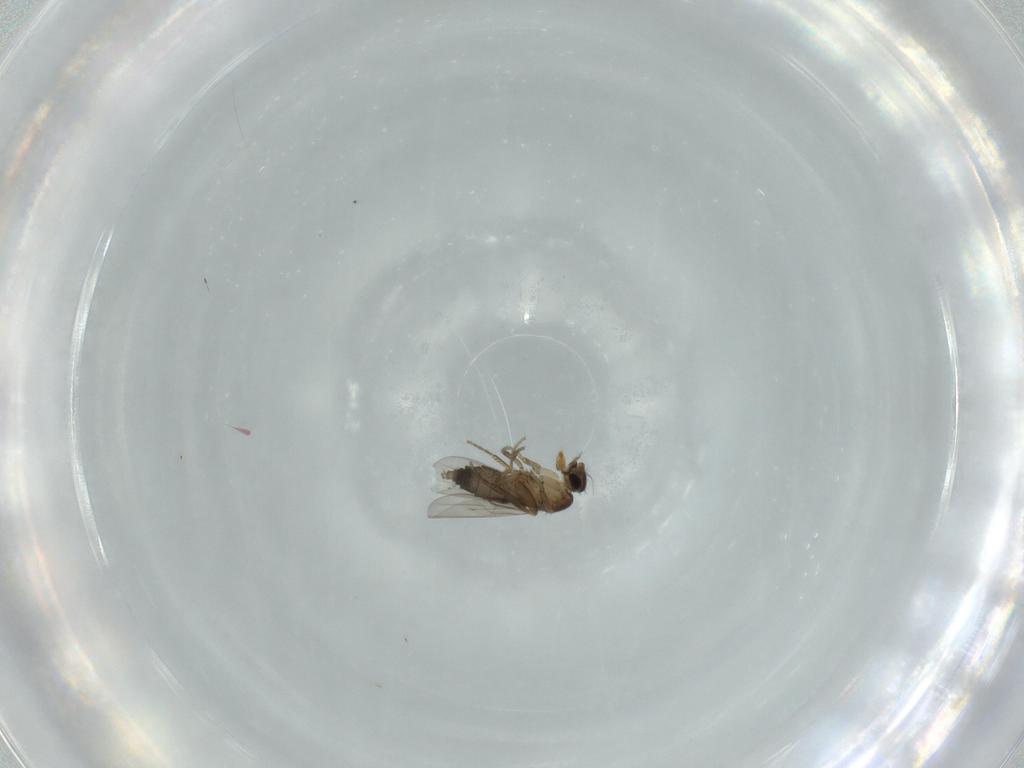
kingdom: Animalia
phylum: Arthropoda
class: Insecta
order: Diptera
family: Phoridae
